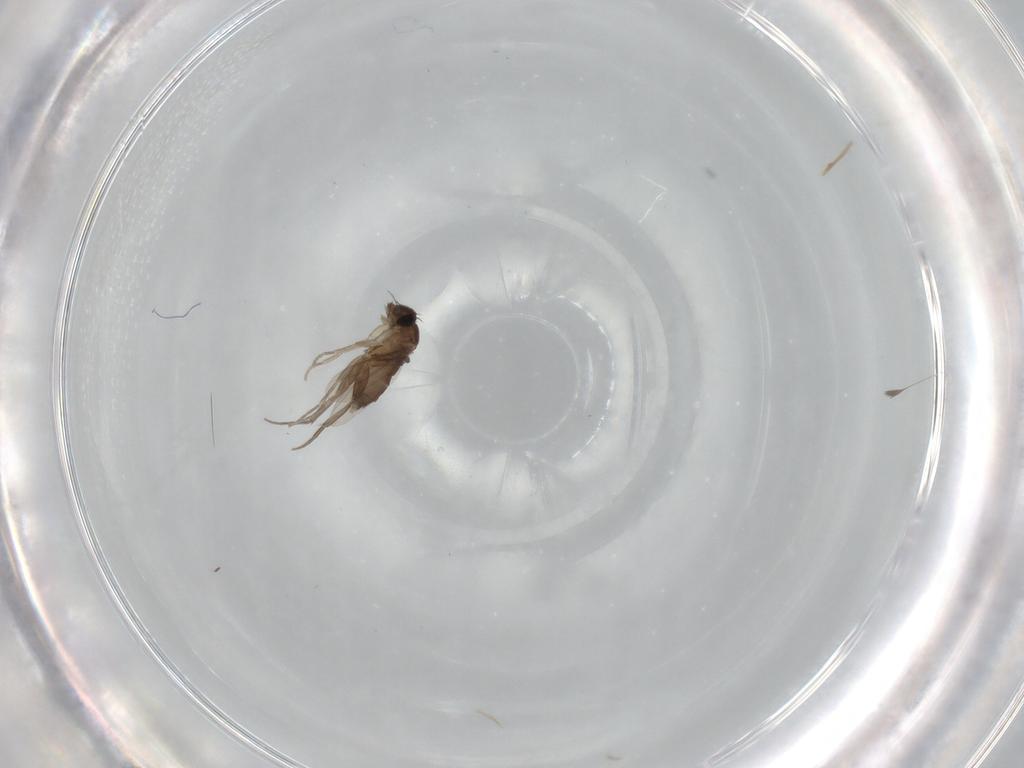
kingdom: Animalia
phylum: Arthropoda
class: Insecta
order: Diptera
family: Phoridae
